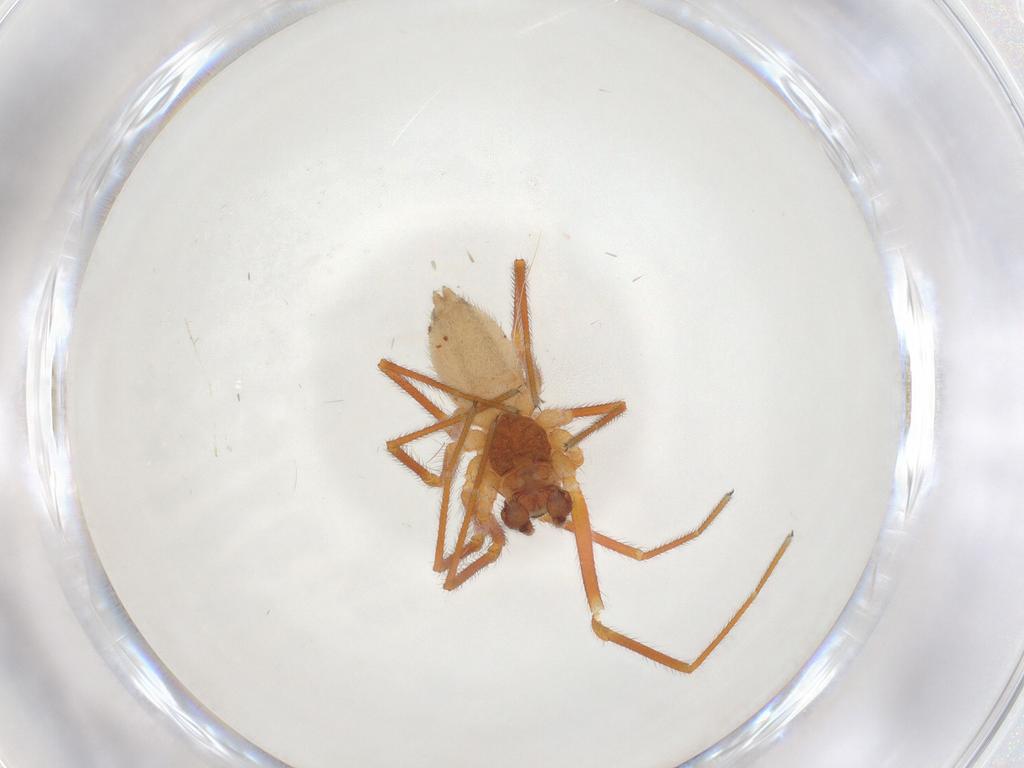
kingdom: Animalia
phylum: Arthropoda
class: Arachnida
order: Araneae
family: Linyphiidae
